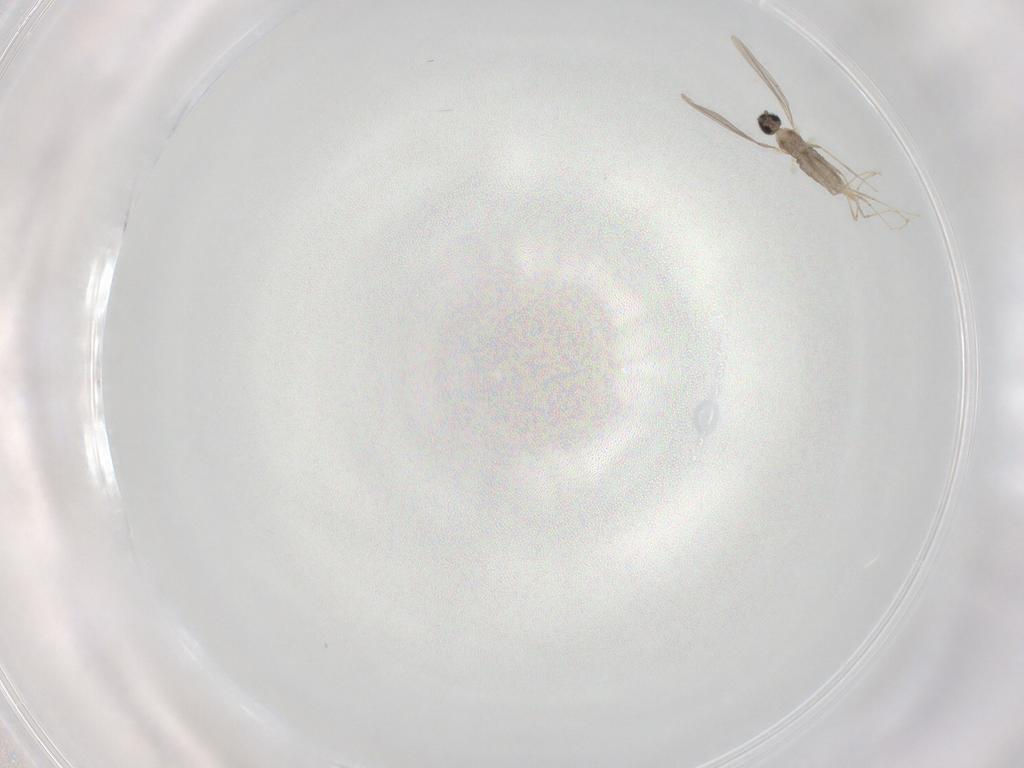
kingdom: Animalia
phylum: Arthropoda
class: Insecta
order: Diptera
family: Cecidomyiidae
